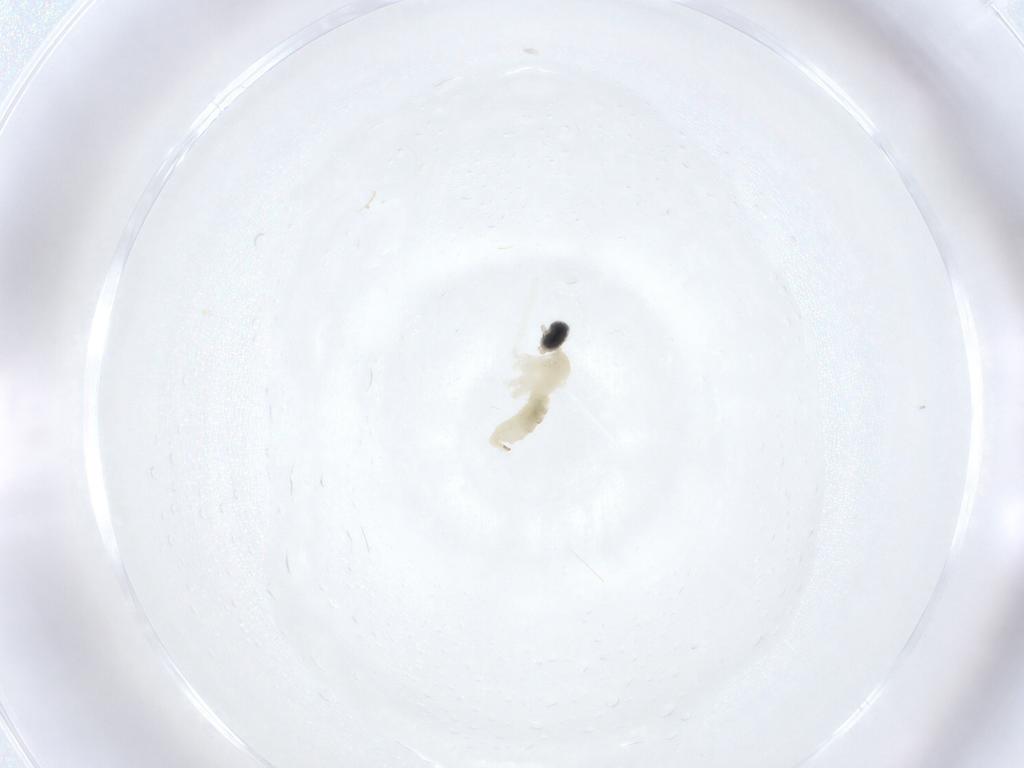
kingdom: Animalia
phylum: Arthropoda
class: Insecta
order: Diptera
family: Cecidomyiidae
